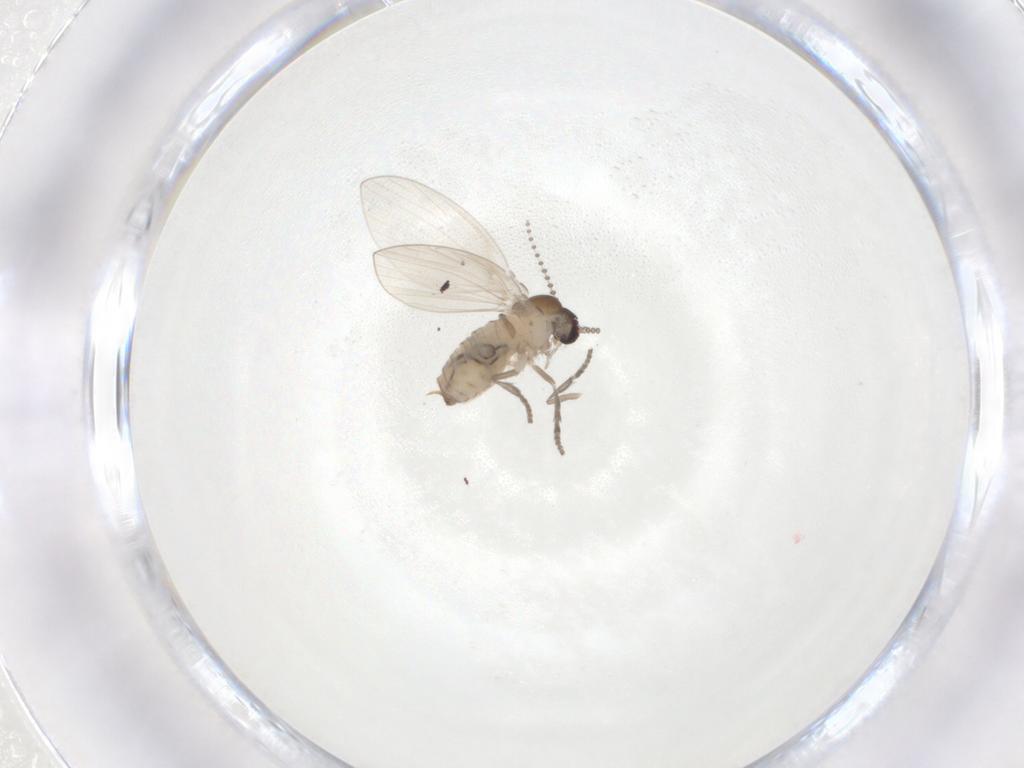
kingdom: Animalia
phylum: Arthropoda
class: Insecta
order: Diptera
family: Psychodidae
